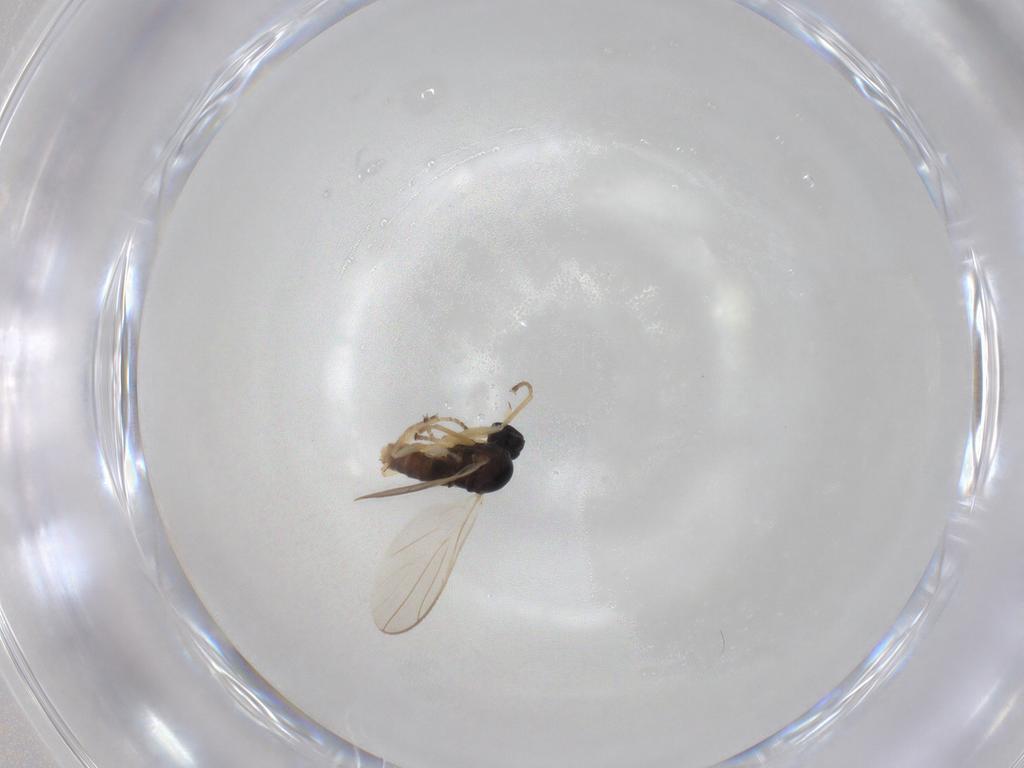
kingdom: Animalia
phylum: Arthropoda
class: Insecta
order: Diptera
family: Hybotidae
